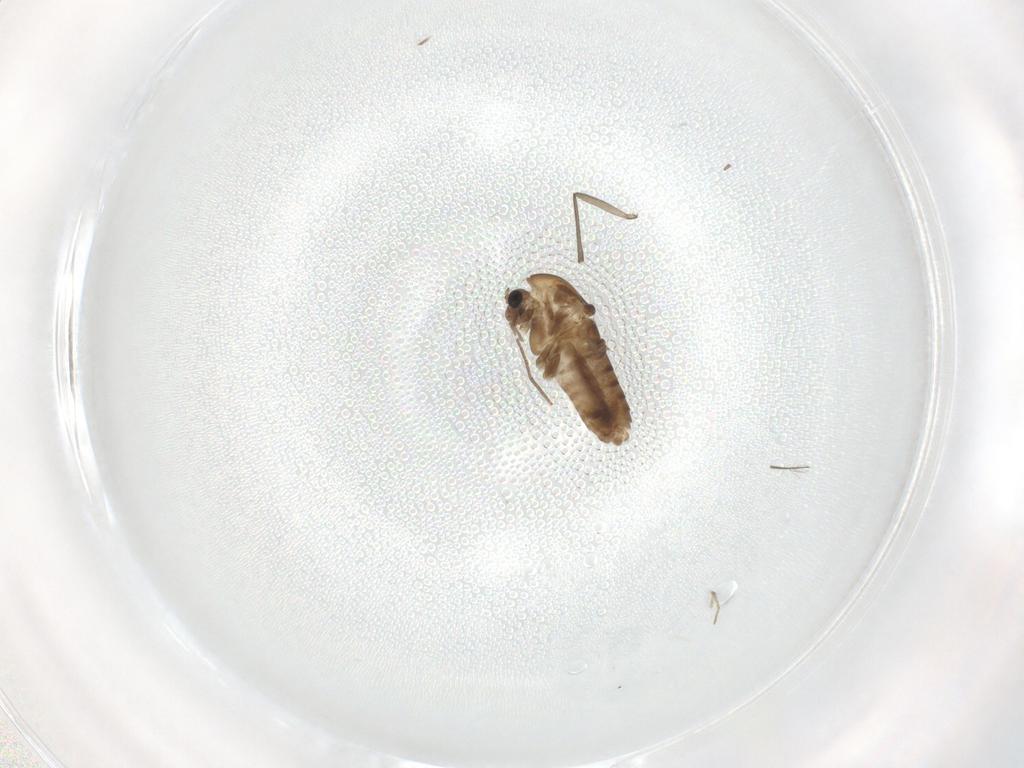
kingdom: Animalia
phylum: Arthropoda
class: Insecta
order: Diptera
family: Chironomidae
